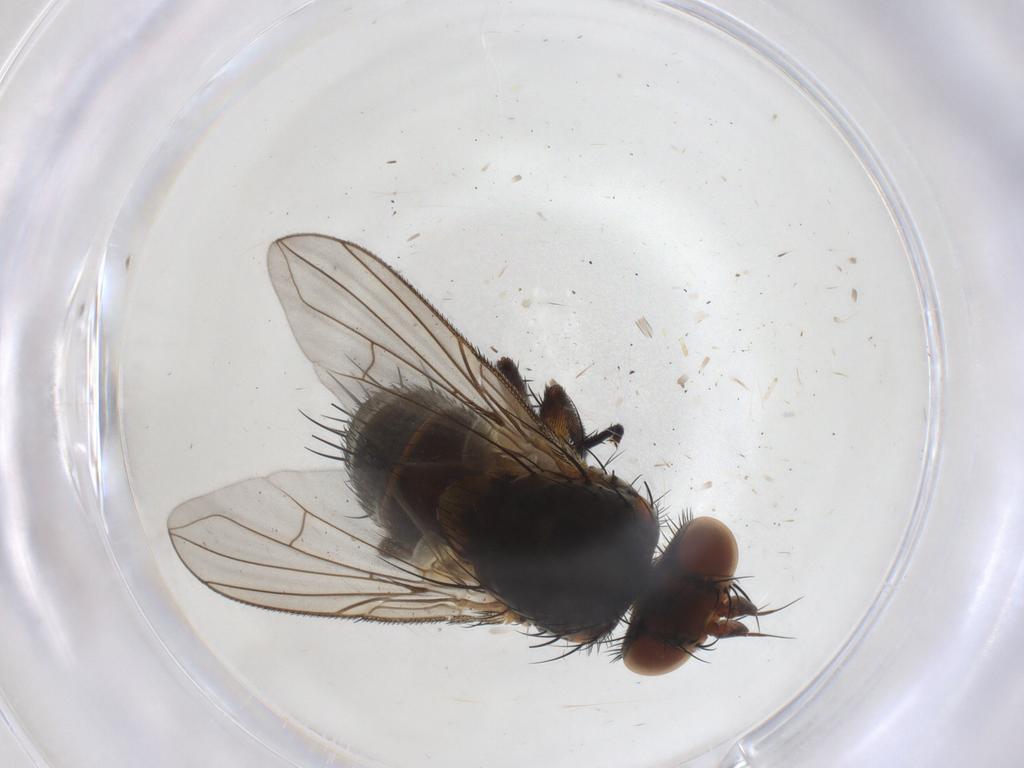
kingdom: Animalia
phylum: Arthropoda
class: Insecta
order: Diptera
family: Tachinidae
